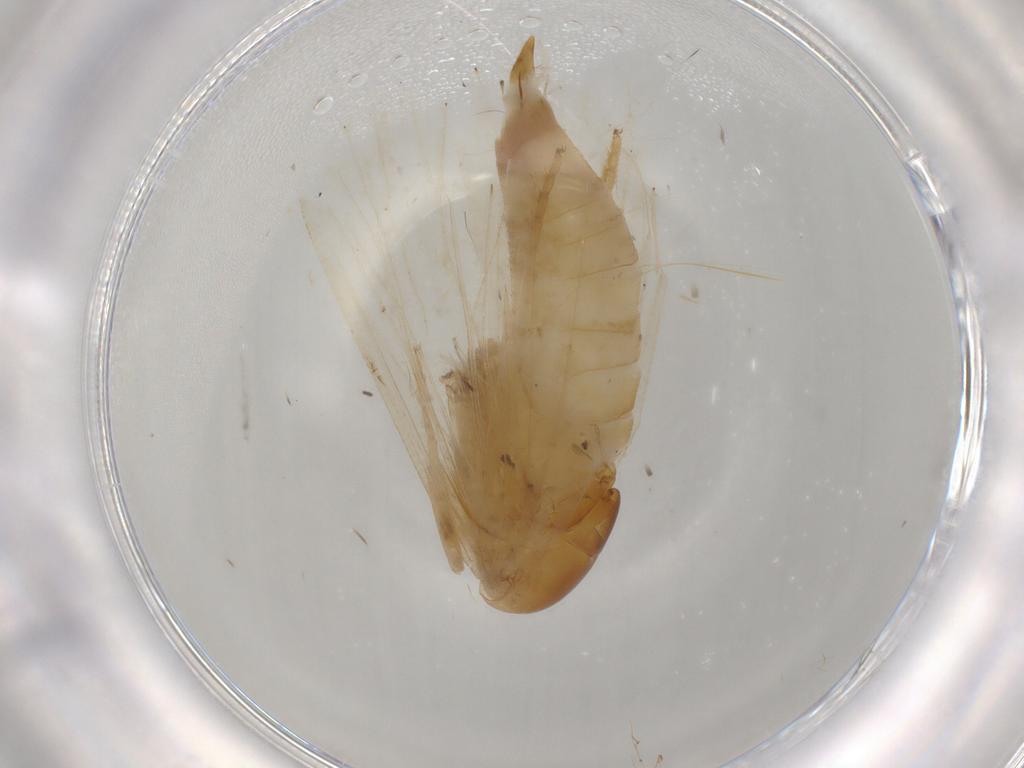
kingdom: Animalia
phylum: Arthropoda
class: Insecta
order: Lepidoptera
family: Noctuidae
